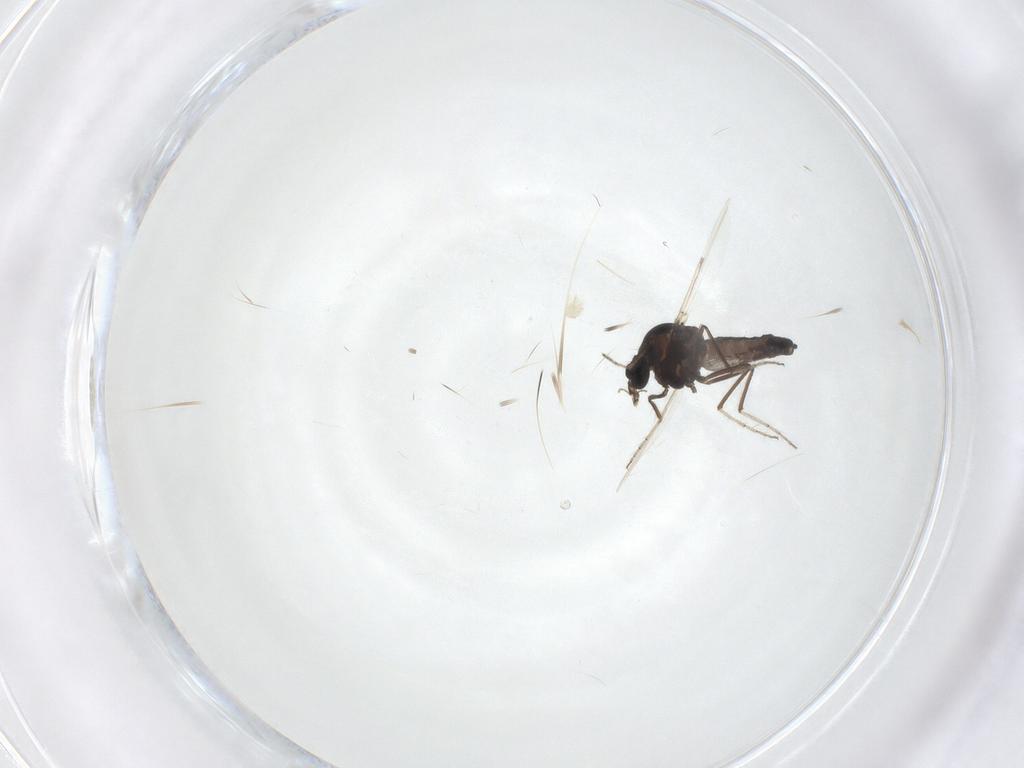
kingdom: Animalia
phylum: Arthropoda
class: Insecta
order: Diptera
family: Ceratopogonidae
